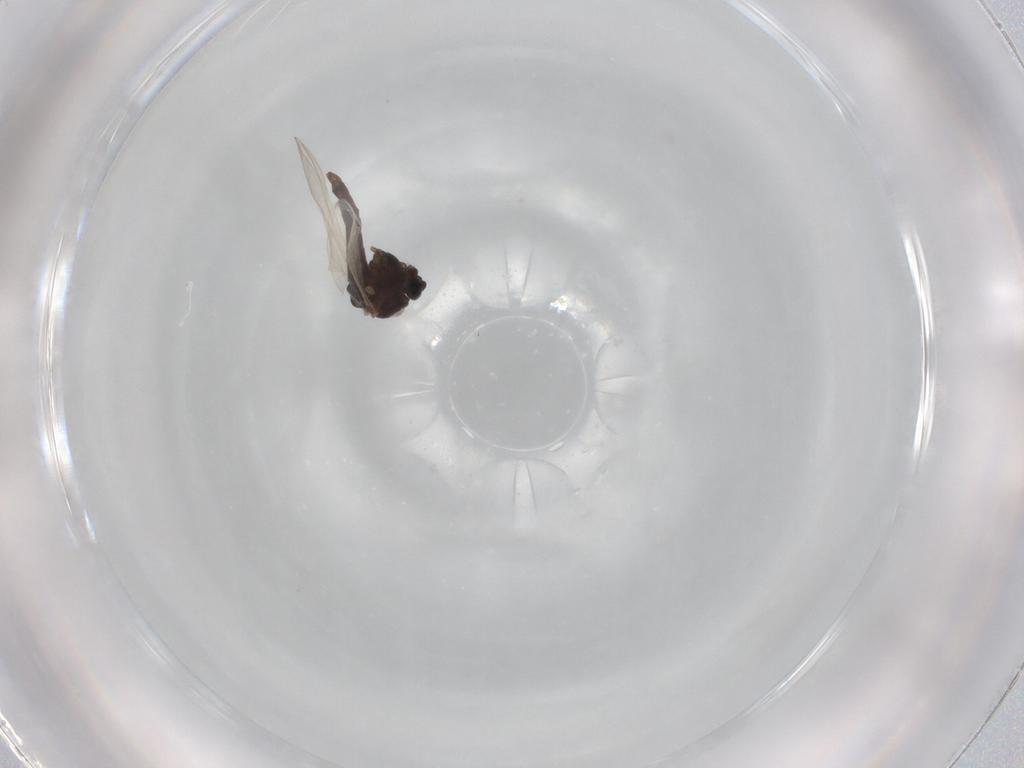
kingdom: Animalia
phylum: Arthropoda
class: Insecta
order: Diptera
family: Chironomidae
